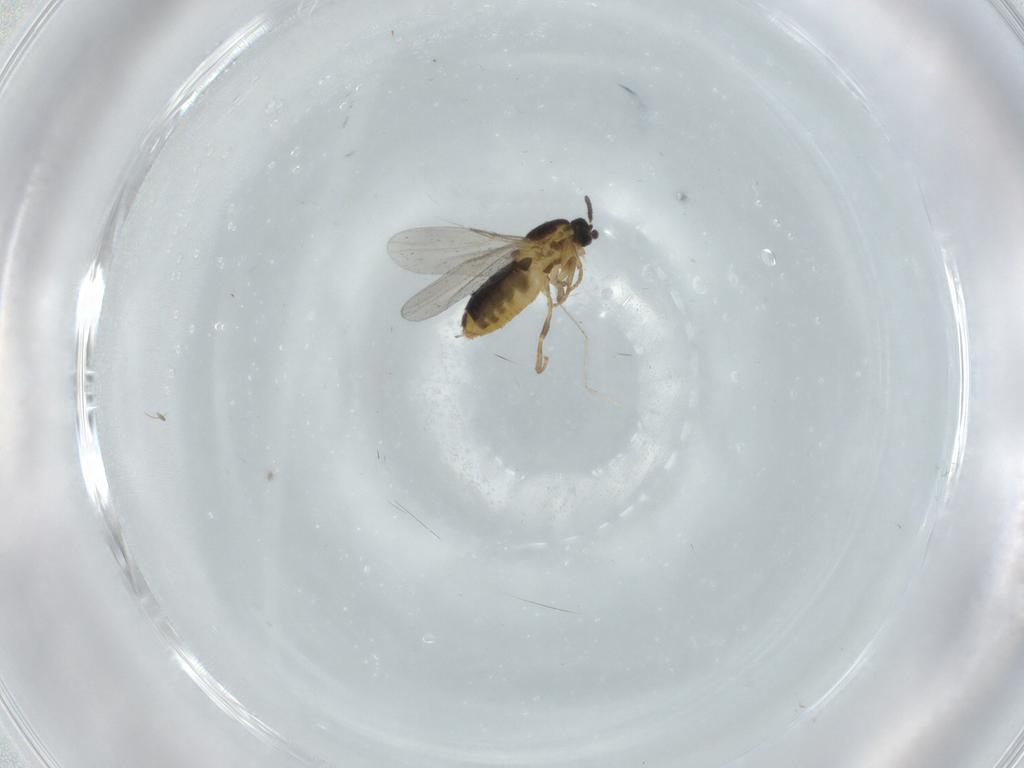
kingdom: Animalia
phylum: Arthropoda
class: Insecta
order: Diptera
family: Scatopsidae
